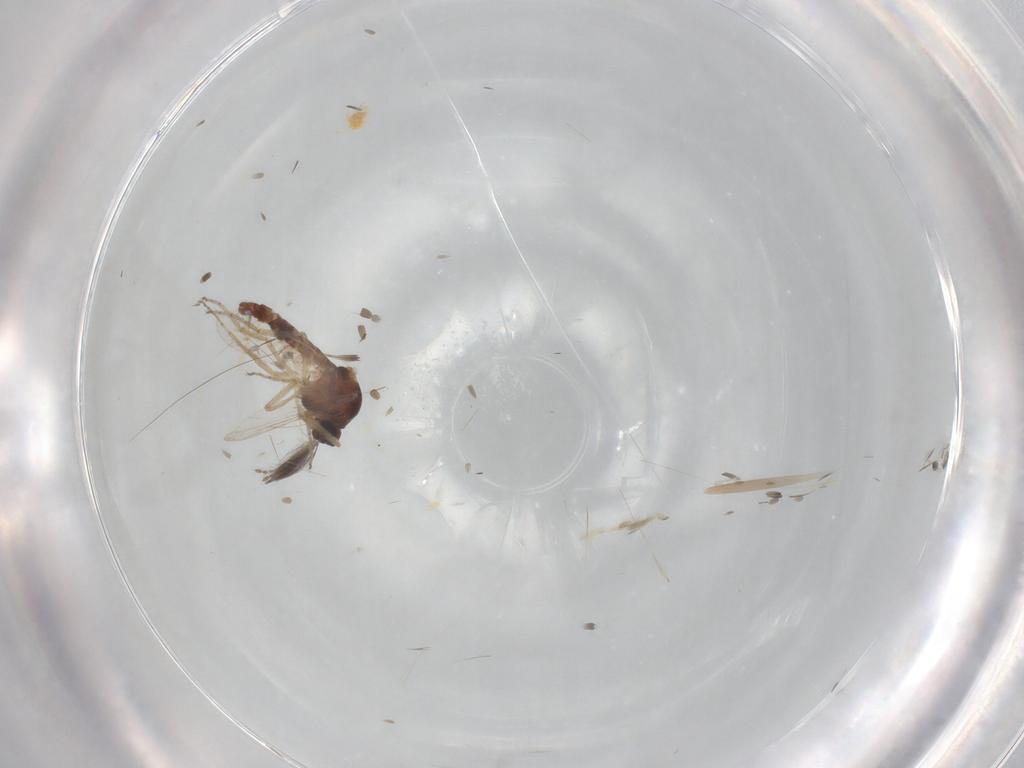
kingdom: Animalia
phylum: Arthropoda
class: Insecta
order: Diptera
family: Ceratopogonidae
